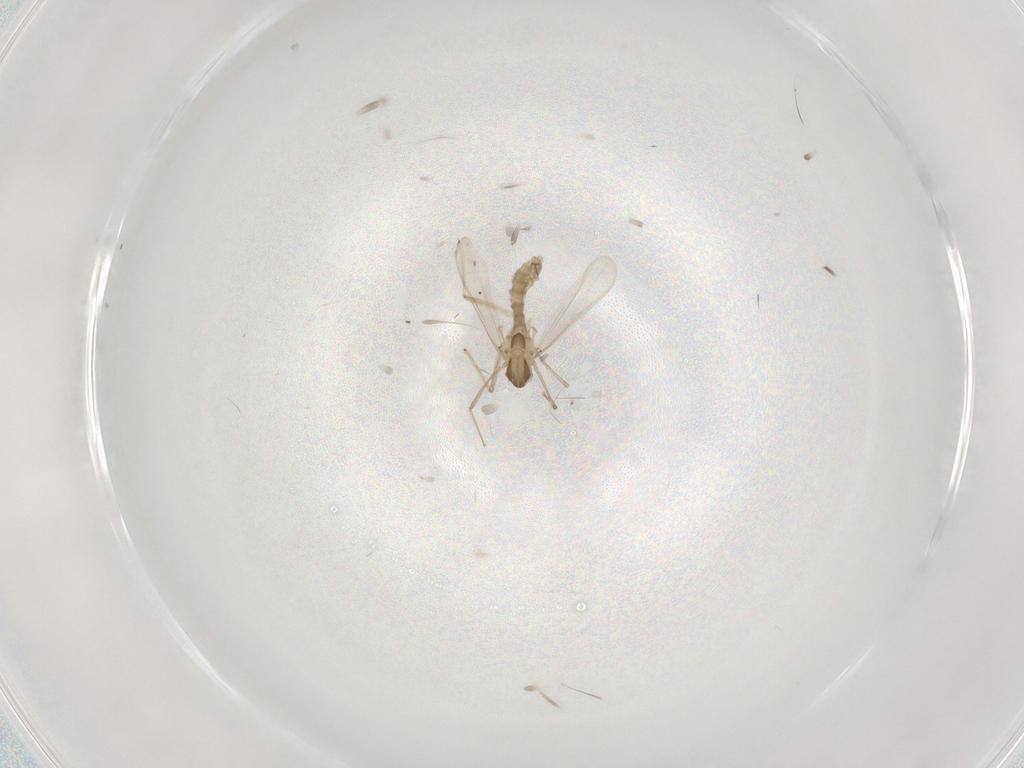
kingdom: Animalia
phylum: Arthropoda
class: Insecta
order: Diptera
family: Chironomidae
